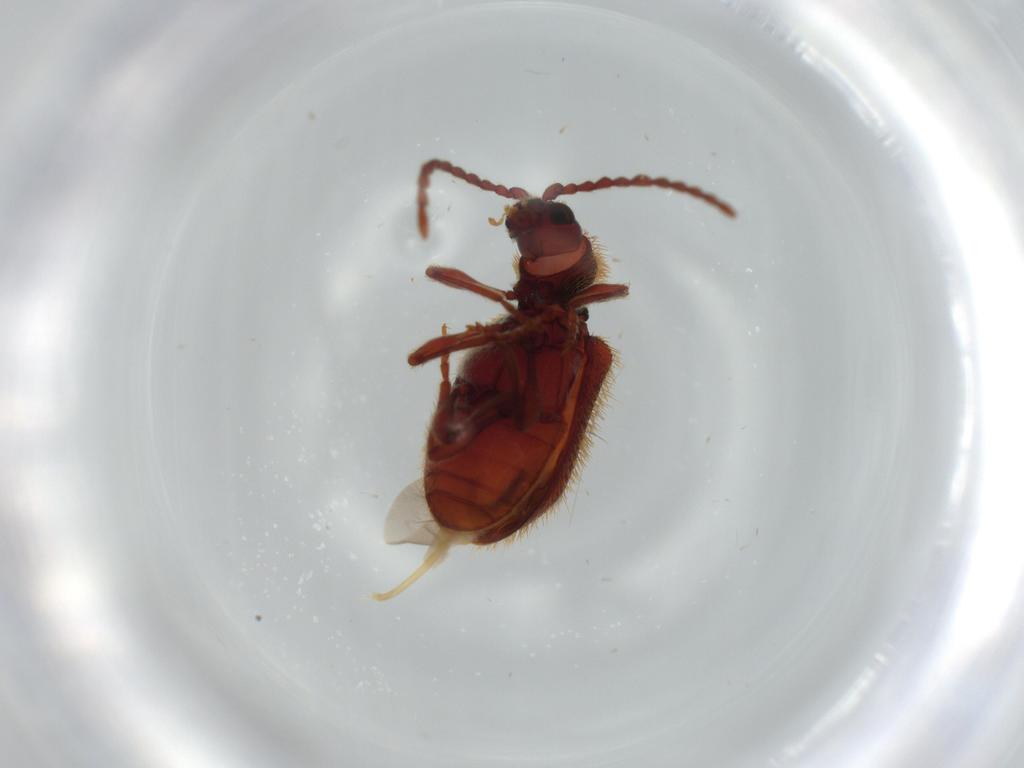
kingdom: Animalia
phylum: Arthropoda
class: Insecta
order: Coleoptera
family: Ptinidae
